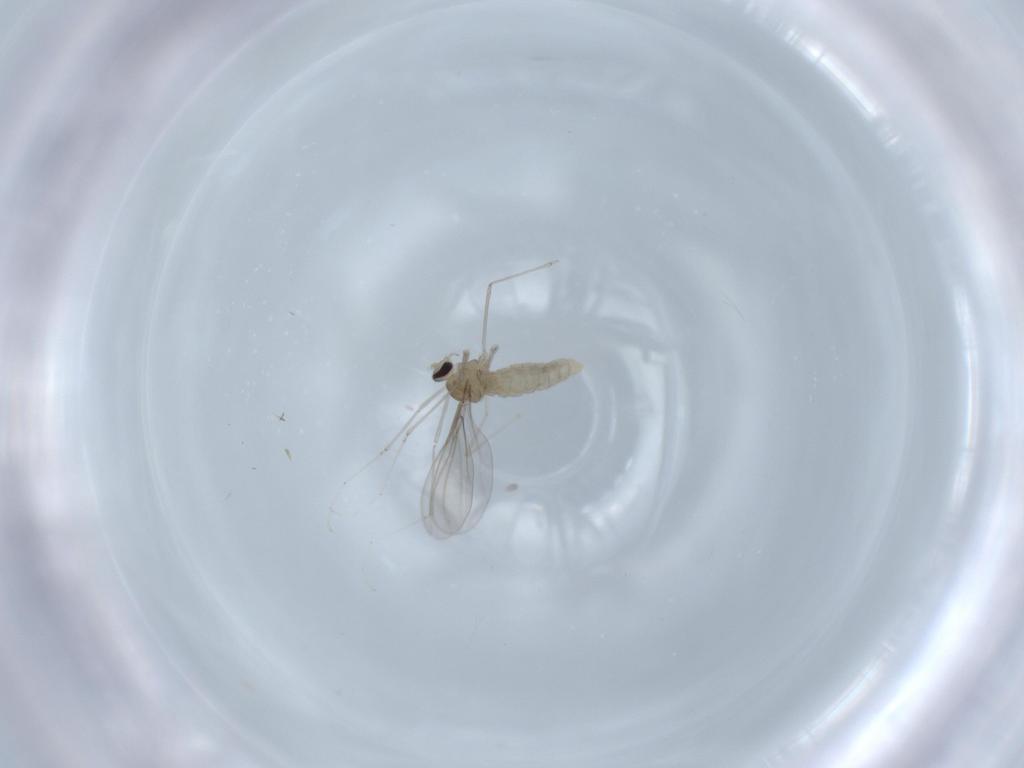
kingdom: Animalia
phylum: Arthropoda
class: Insecta
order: Diptera
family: Cecidomyiidae
